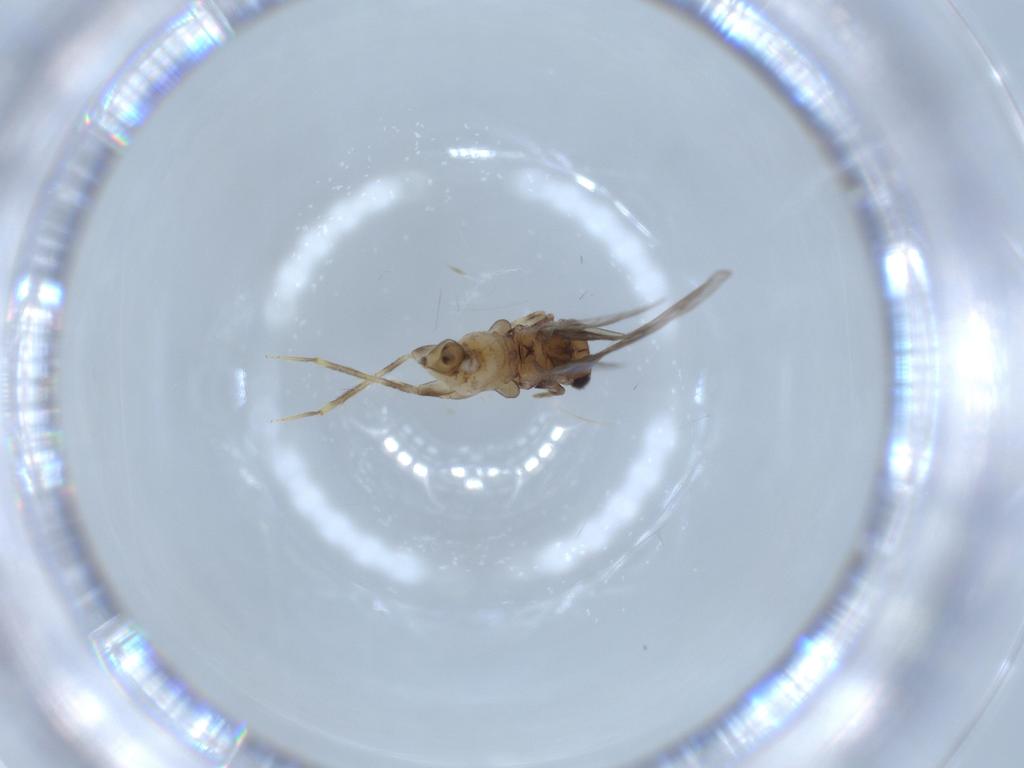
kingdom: Animalia
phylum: Arthropoda
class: Insecta
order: Psocodea
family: Lepidopsocidae
